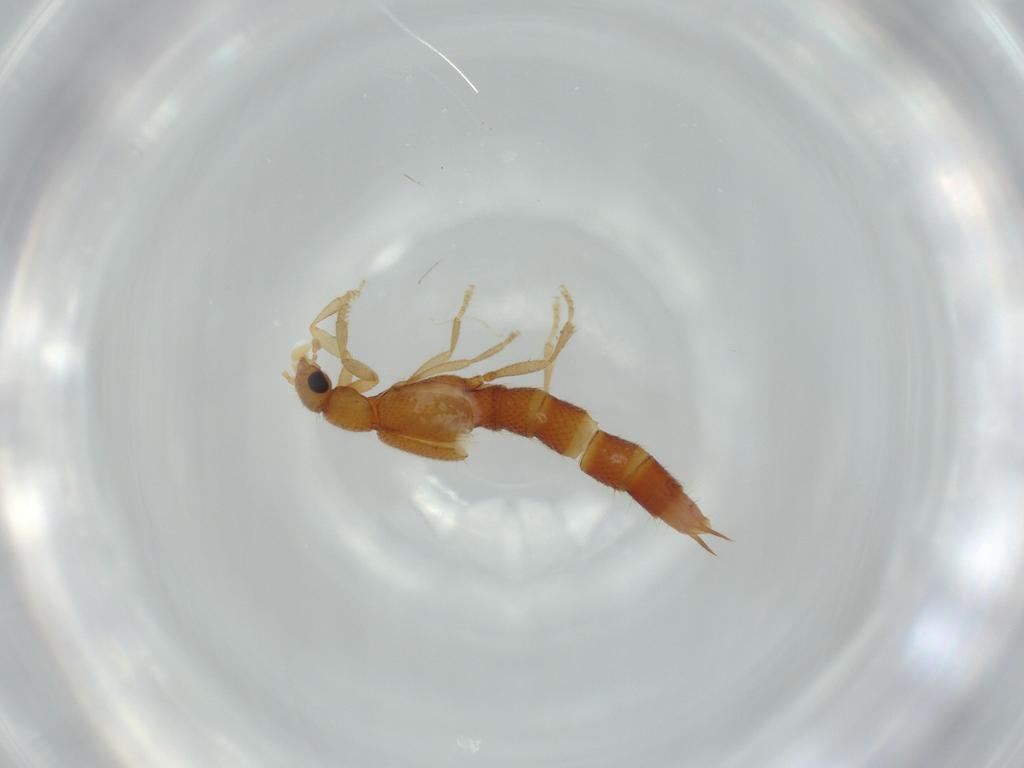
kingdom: Animalia
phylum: Arthropoda
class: Insecta
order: Coleoptera
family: Staphylinidae
